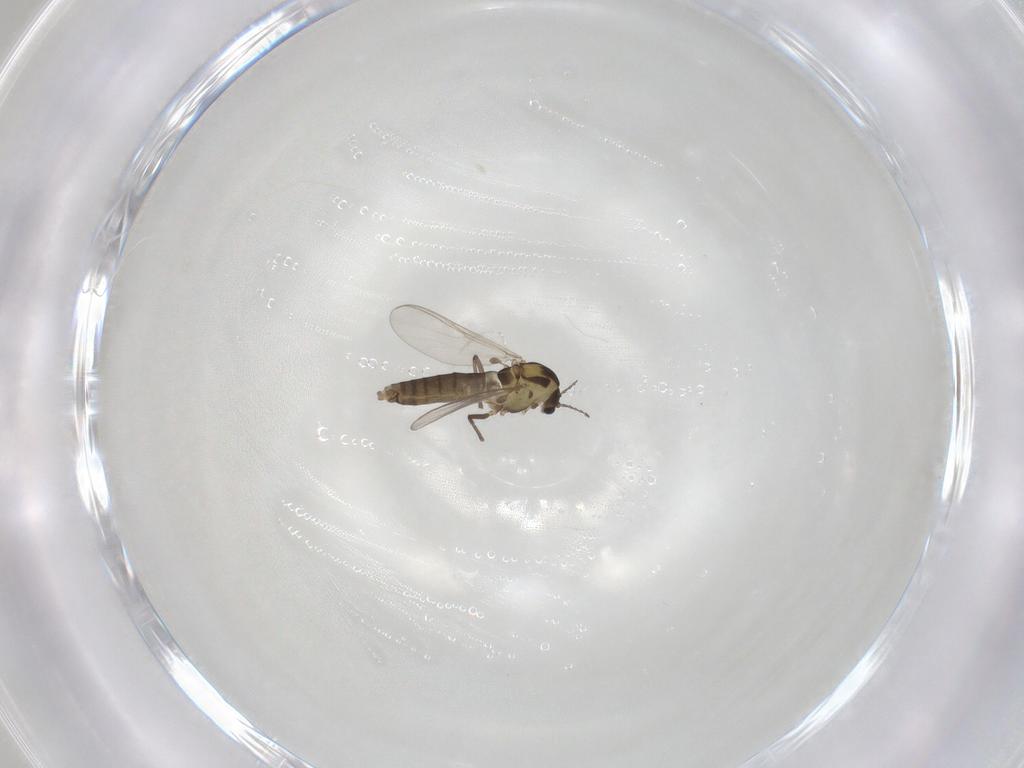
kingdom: Animalia
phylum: Arthropoda
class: Insecta
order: Diptera
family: Chironomidae
